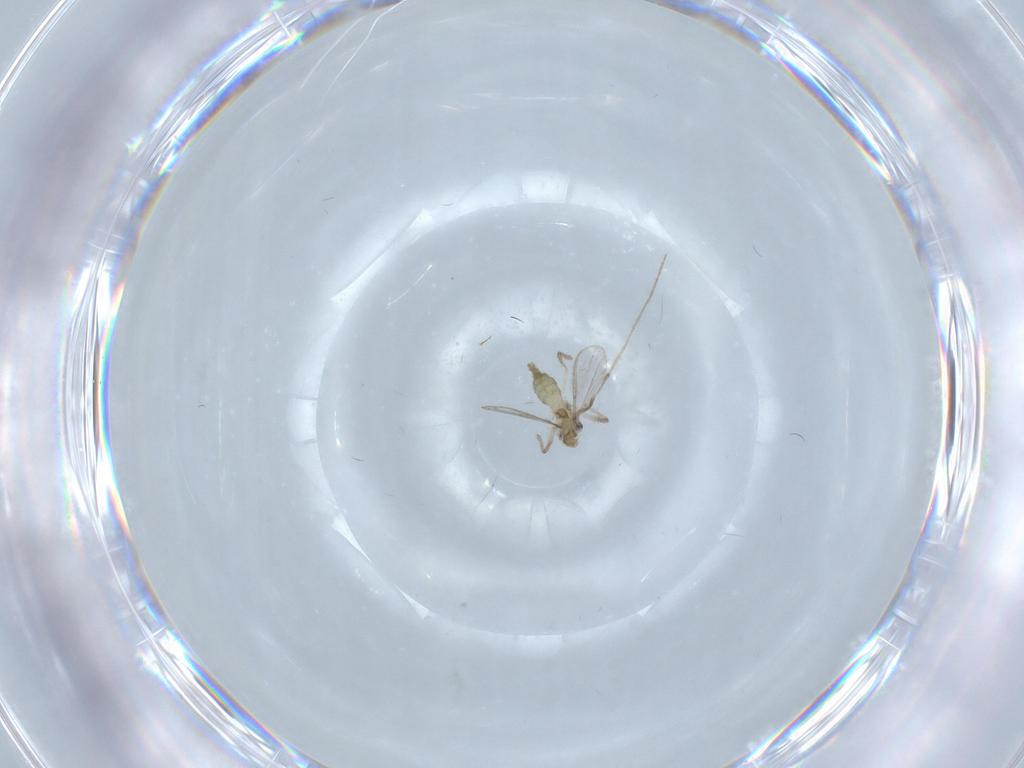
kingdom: Animalia
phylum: Arthropoda
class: Insecta
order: Diptera
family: Chironomidae
